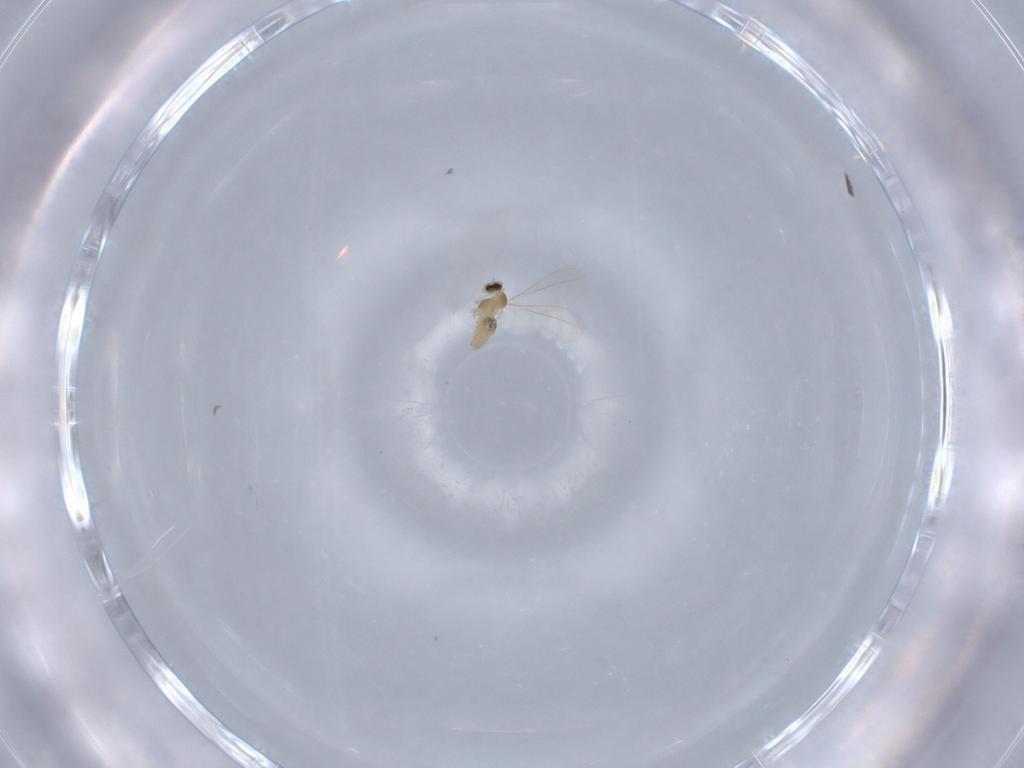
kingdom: Animalia
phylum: Arthropoda
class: Insecta
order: Diptera
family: Cecidomyiidae
